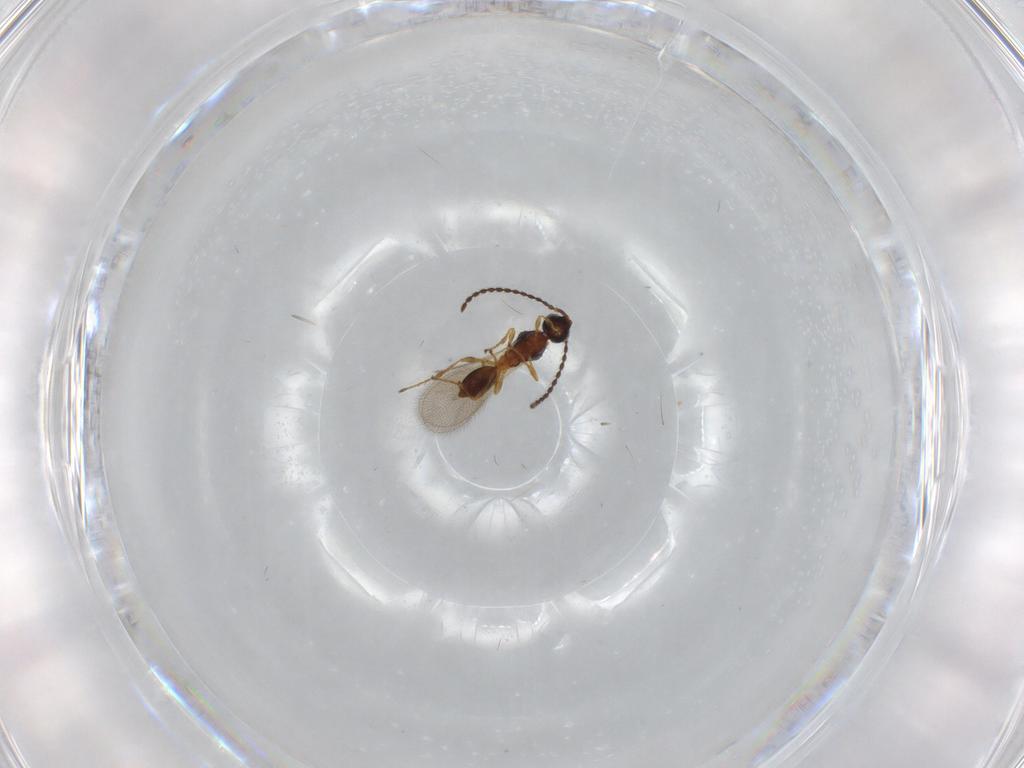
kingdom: Animalia
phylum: Arthropoda
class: Insecta
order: Hymenoptera
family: Diapriidae
